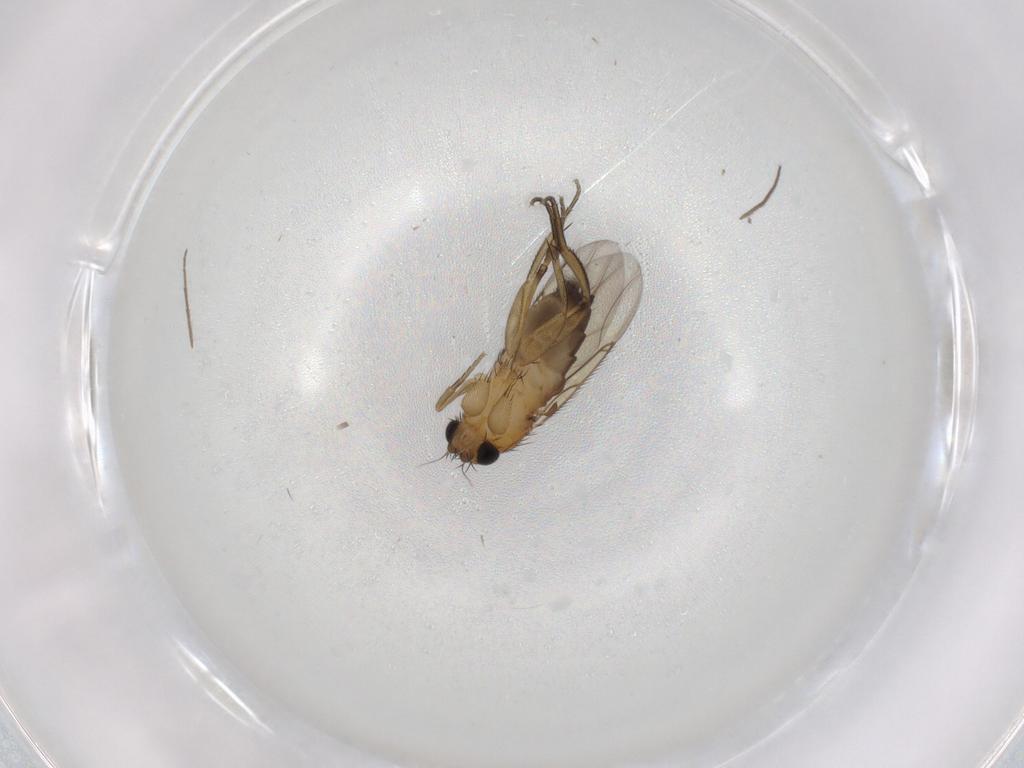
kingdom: Animalia
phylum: Arthropoda
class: Insecta
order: Diptera
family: Phoridae
